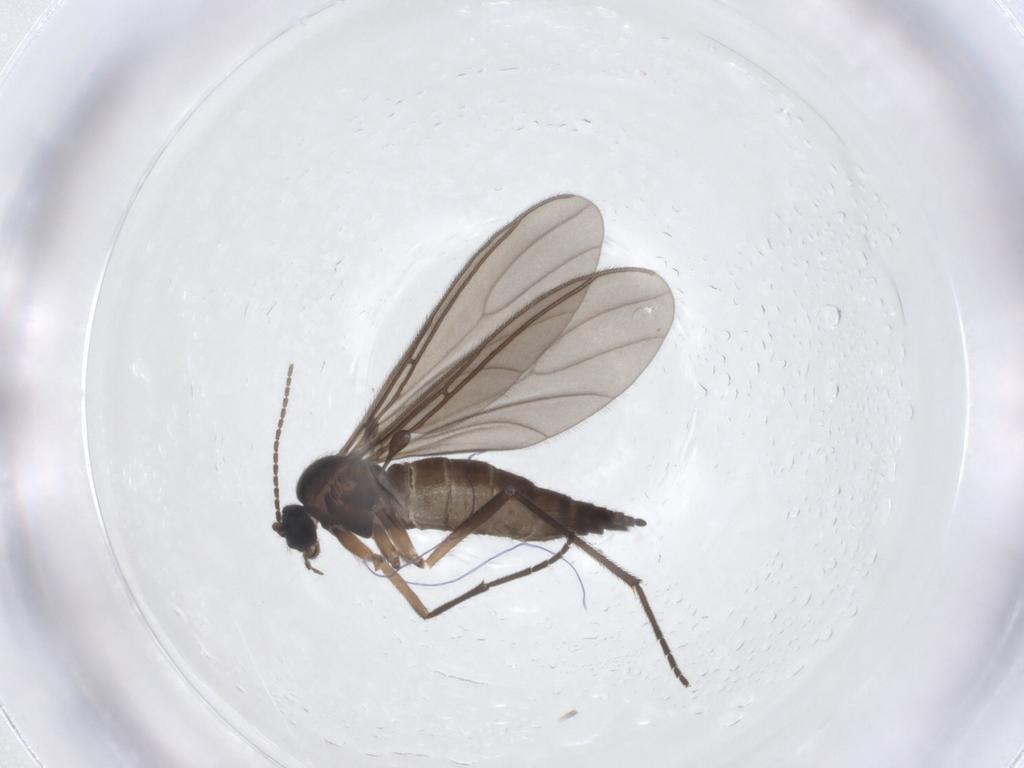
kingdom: Animalia
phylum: Arthropoda
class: Insecta
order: Diptera
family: Sciaridae
